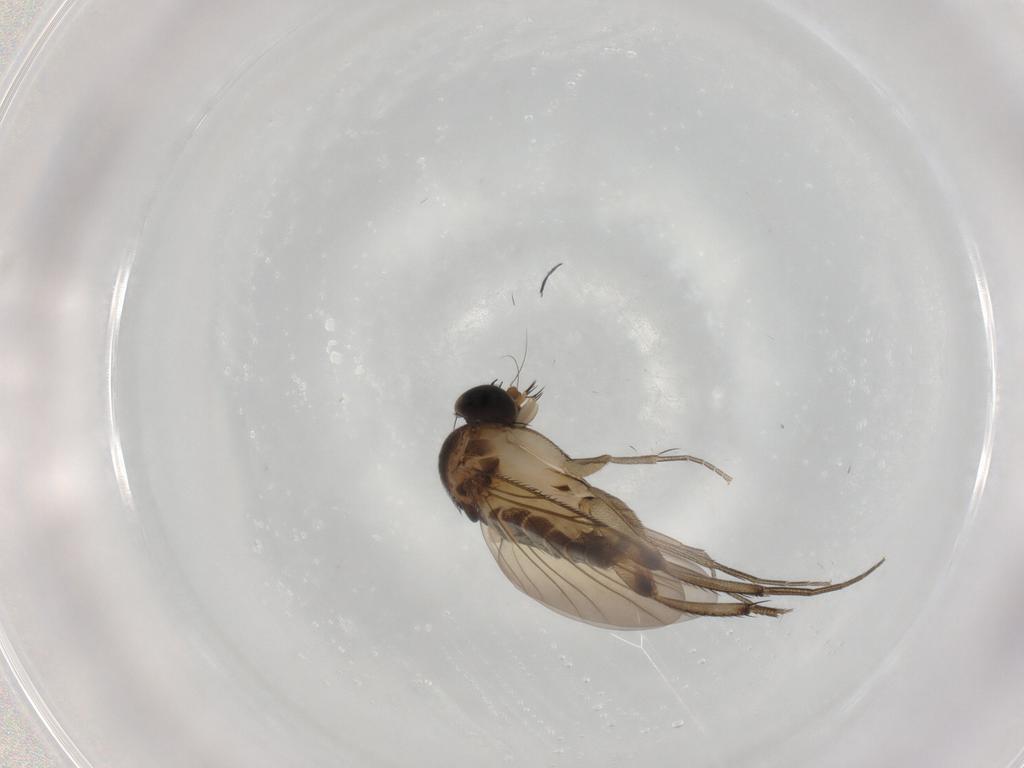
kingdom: Animalia
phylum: Arthropoda
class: Insecta
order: Diptera
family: Phoridae
